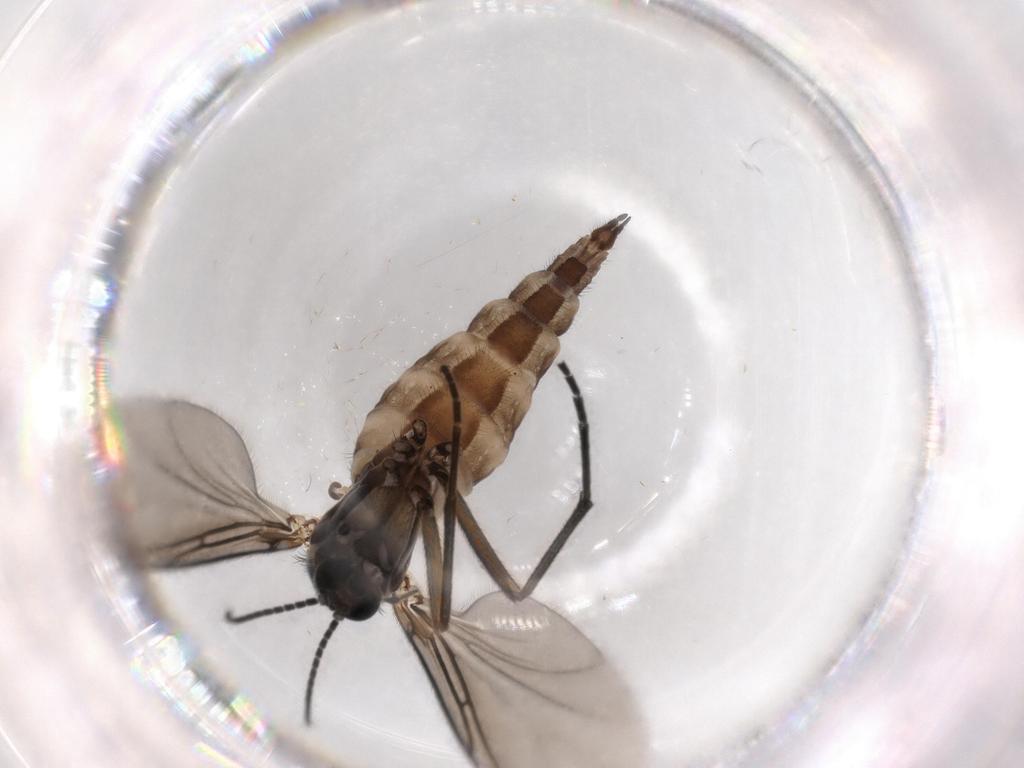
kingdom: Animalia
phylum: Arthropoda
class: Insecta
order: Diptera
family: Sciaridae
